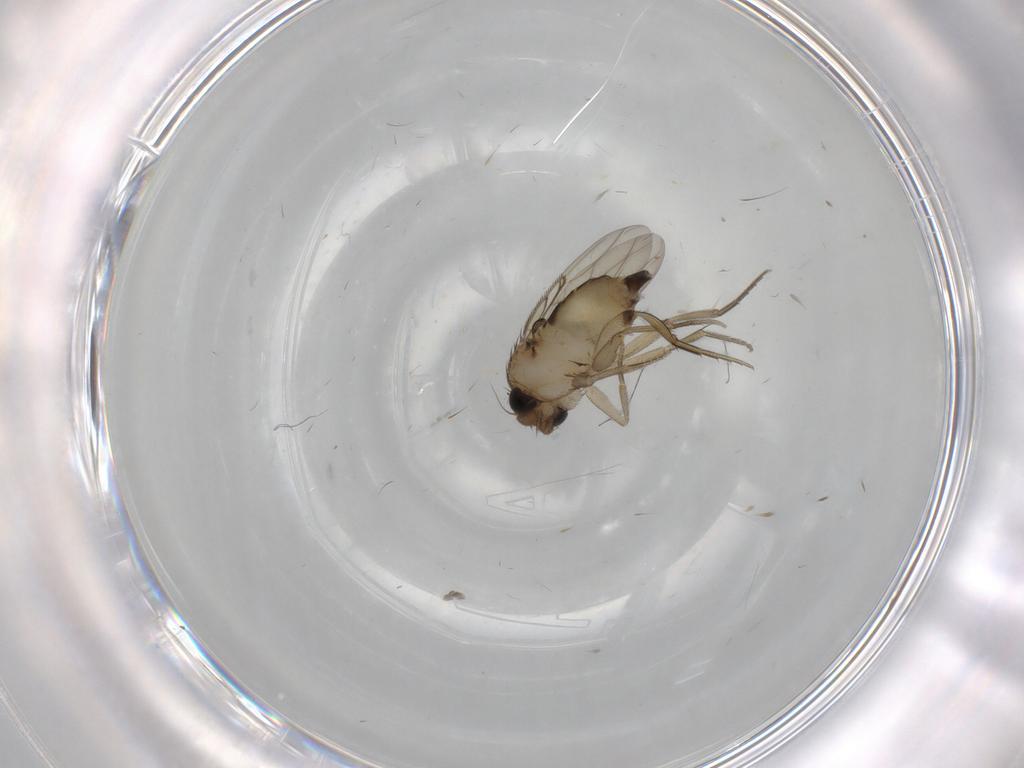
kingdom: Animalia
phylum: Arthropoda
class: Insecta
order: Diptera
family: Phoridae
